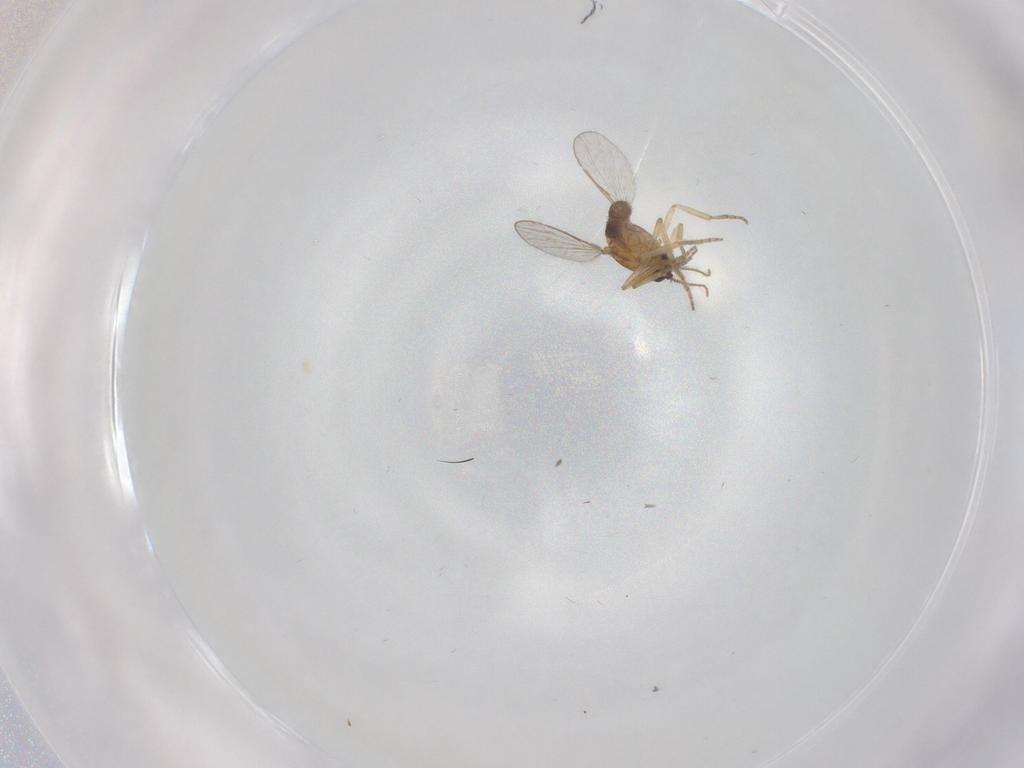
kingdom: Animalia
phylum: Arthropoda
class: Insecta
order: Diptera
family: Ceratopogonidae
